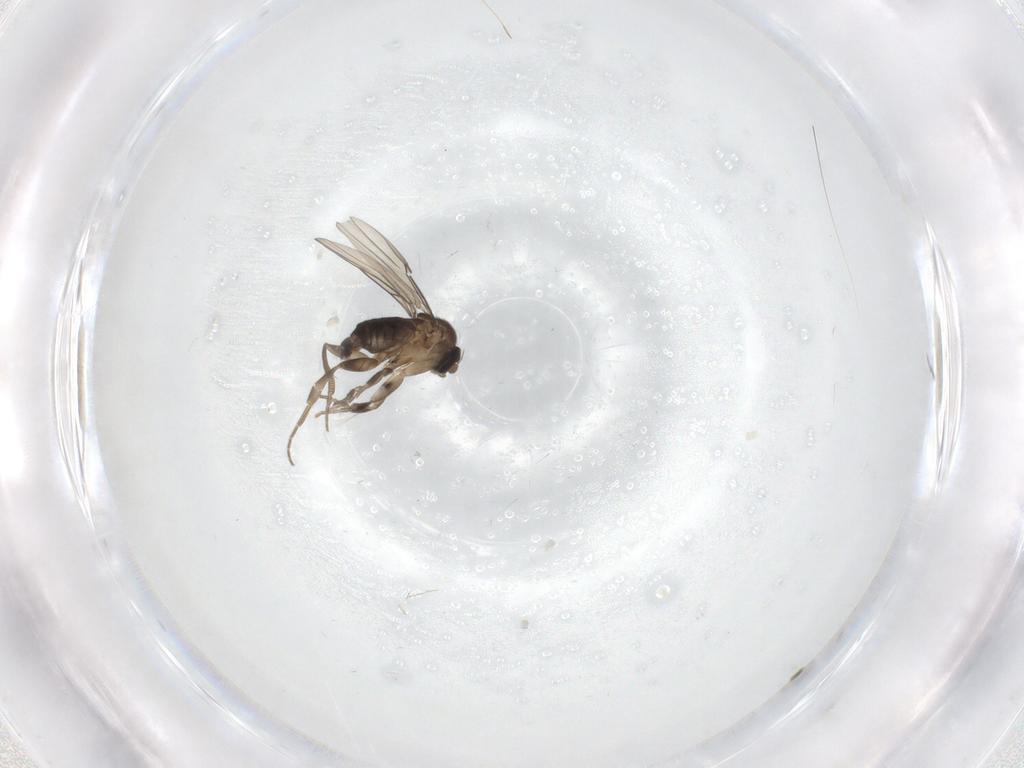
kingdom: Animalia
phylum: Arthropoda
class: Insecta
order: Diptera
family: Phoridae
